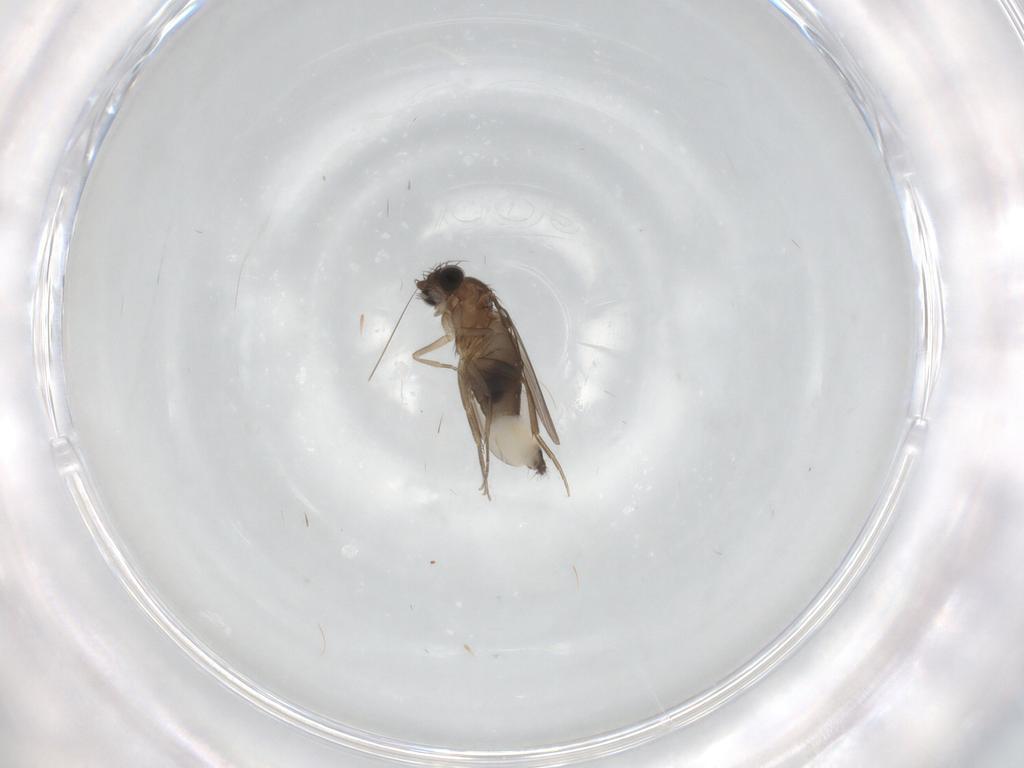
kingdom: Animalia
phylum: Arthropoda
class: Insecta
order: Diptera
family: Phoridae
